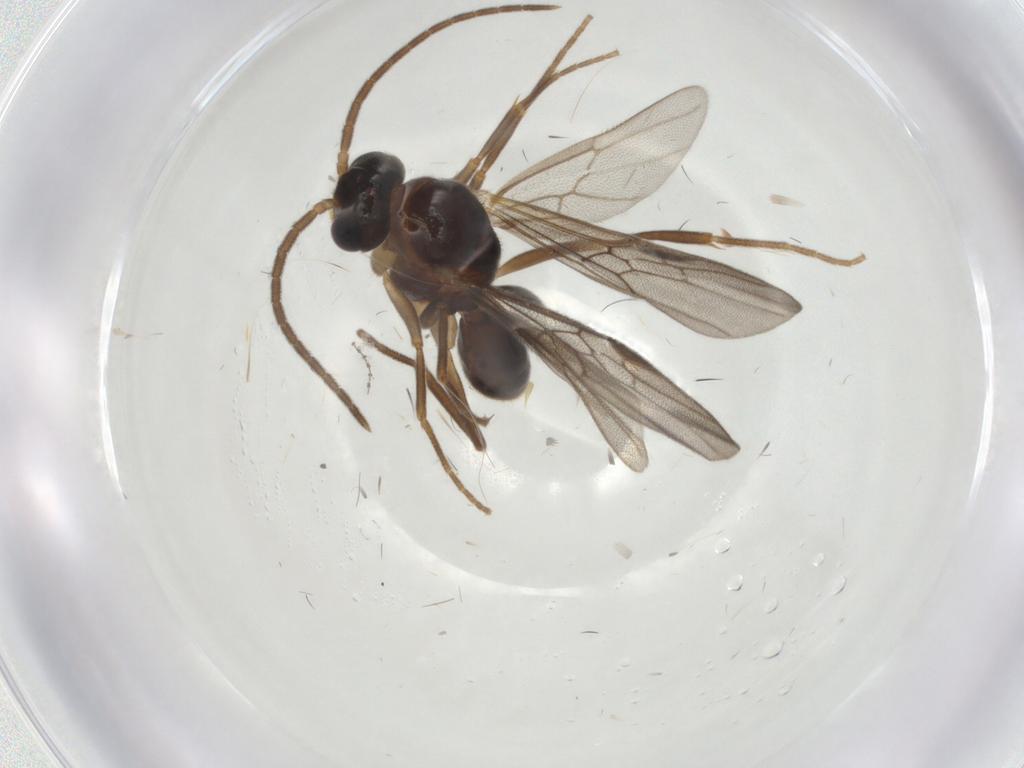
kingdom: Animalia
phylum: Arthropoda
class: Insecta
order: Hymenoptera
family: Formicidae
